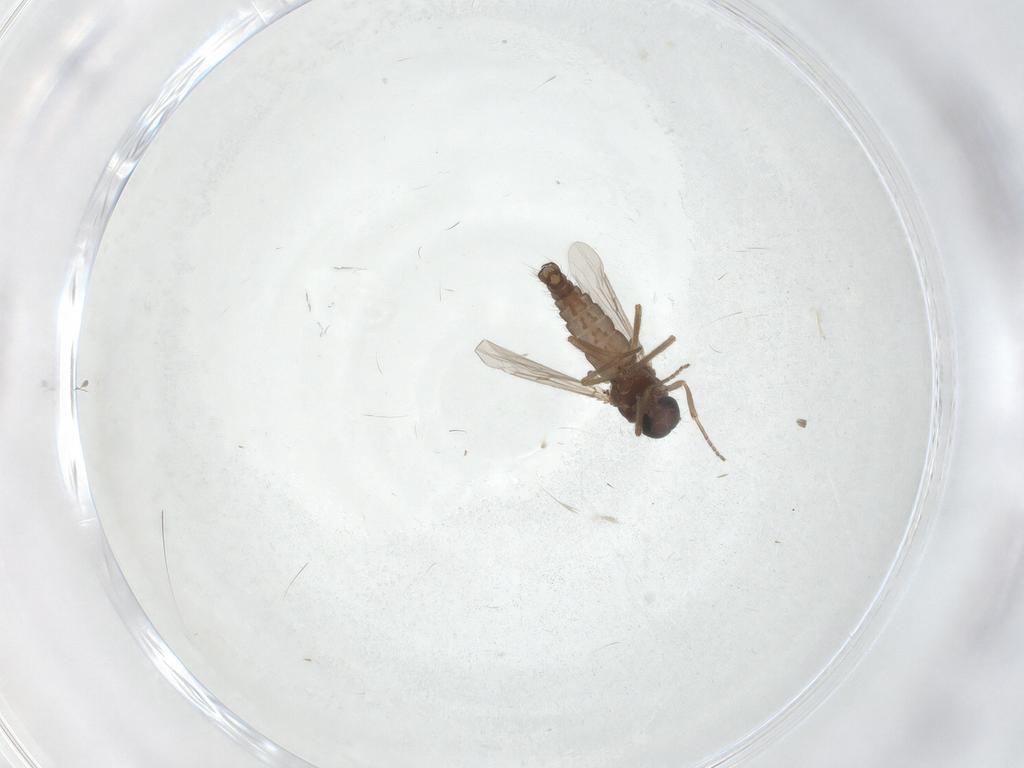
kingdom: Animalia
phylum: Arthropoda
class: Insecta
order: Diptera
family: Ceratopogonidae
